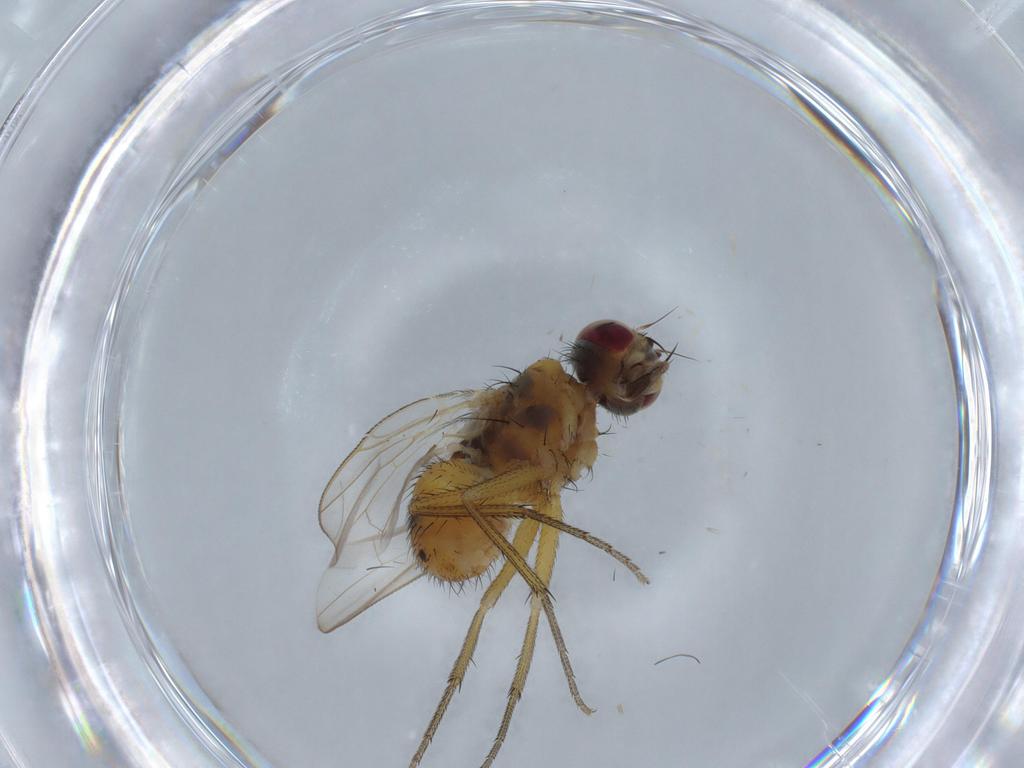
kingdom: Animalia
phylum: Arthropoda
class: Insecta
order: Diptera
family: Muscidae
